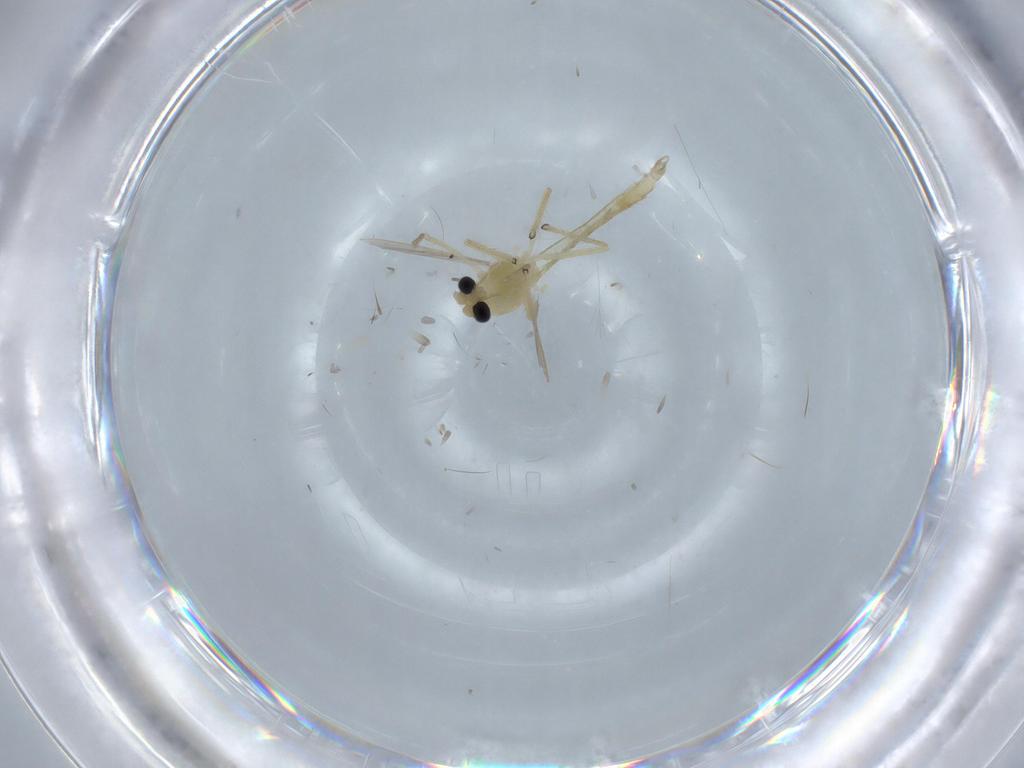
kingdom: Animalia
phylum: Arthropoda
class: Insecta
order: Diptera
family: Chironomidae
